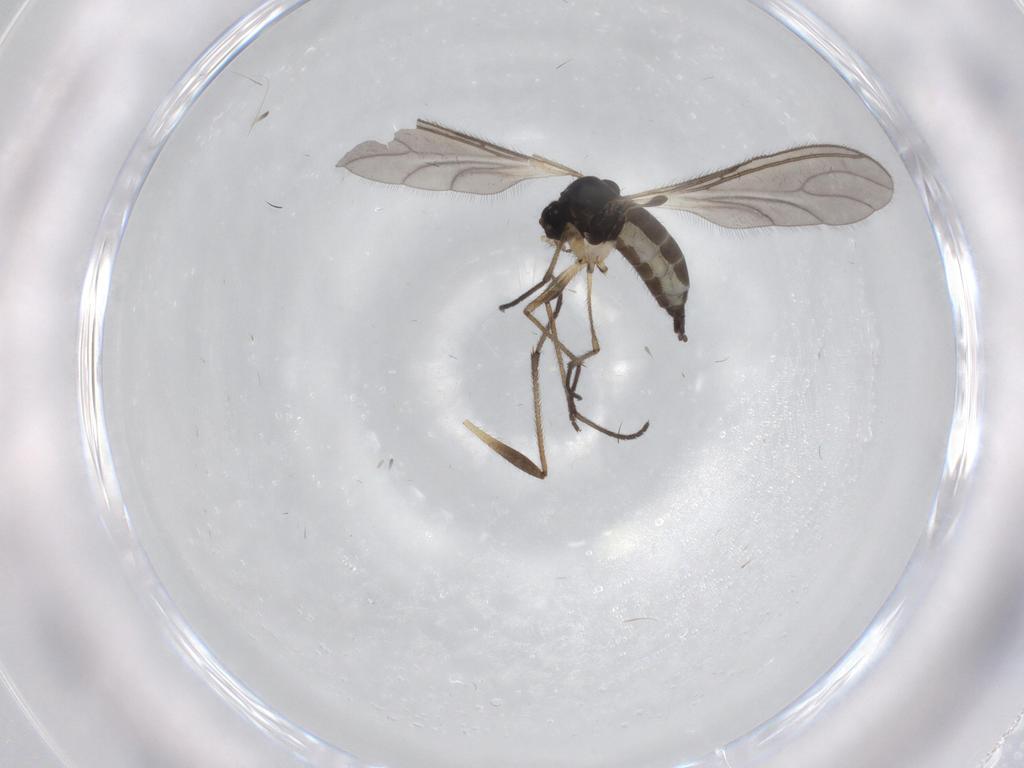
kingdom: Animalia
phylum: Arthropoda
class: Insecta
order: Diptera
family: Sciaridae
